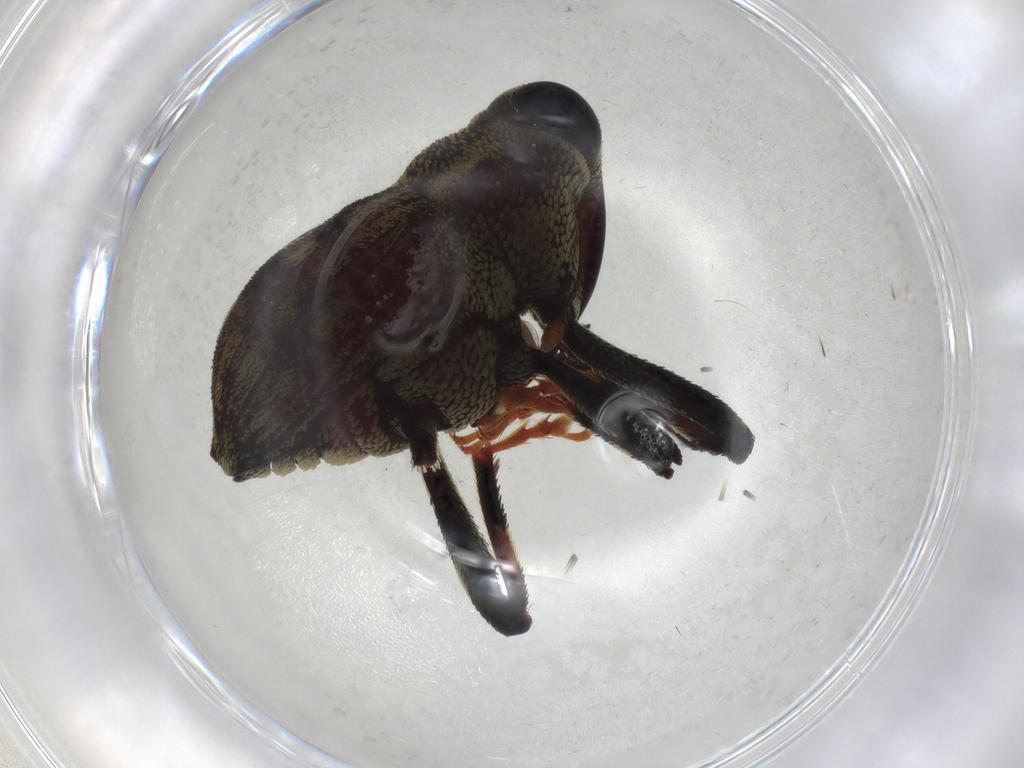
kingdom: Animalia
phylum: Arthropoda
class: Insecta
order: Lepidoptera
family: Dryadaulidae
